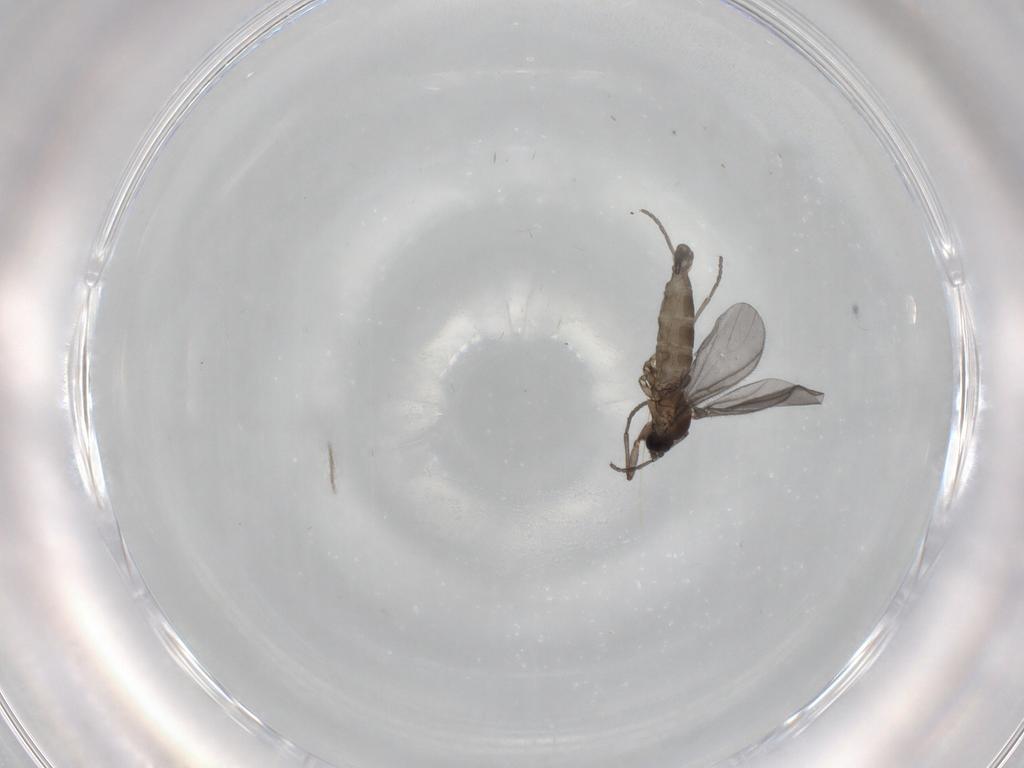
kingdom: Animalia
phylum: Arthropoda
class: Insecta
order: Diptera
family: Sciaridae
